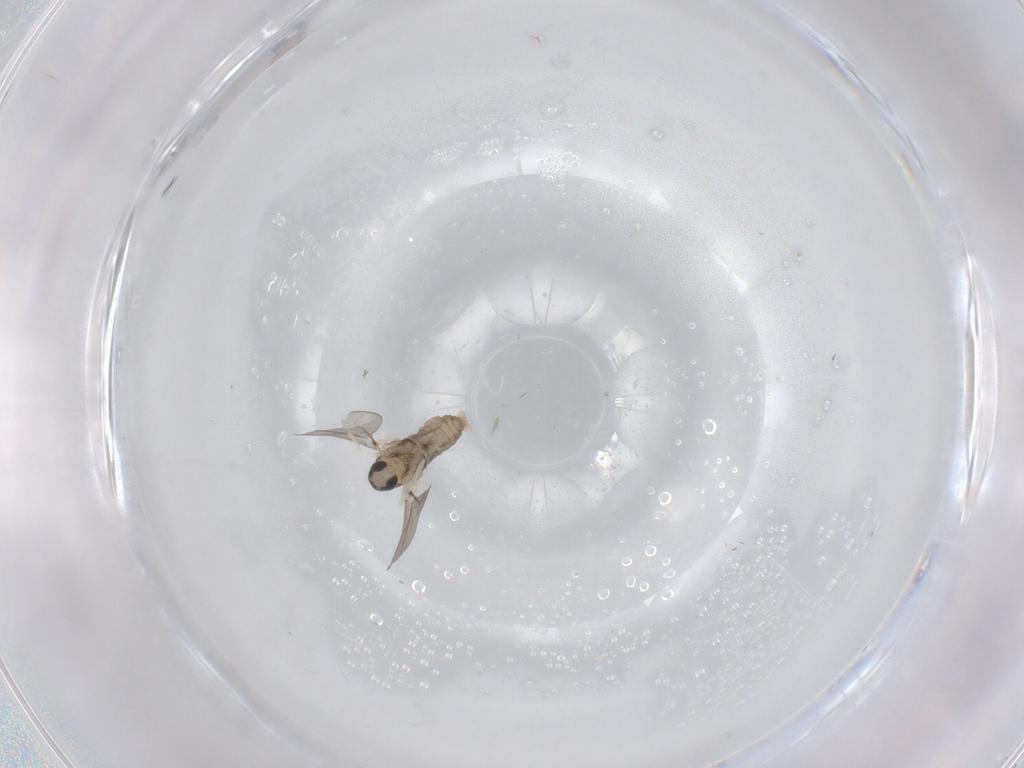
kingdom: Animalia
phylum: Arthropoda
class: Insecta
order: Diptera
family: Cecidomyiidae
